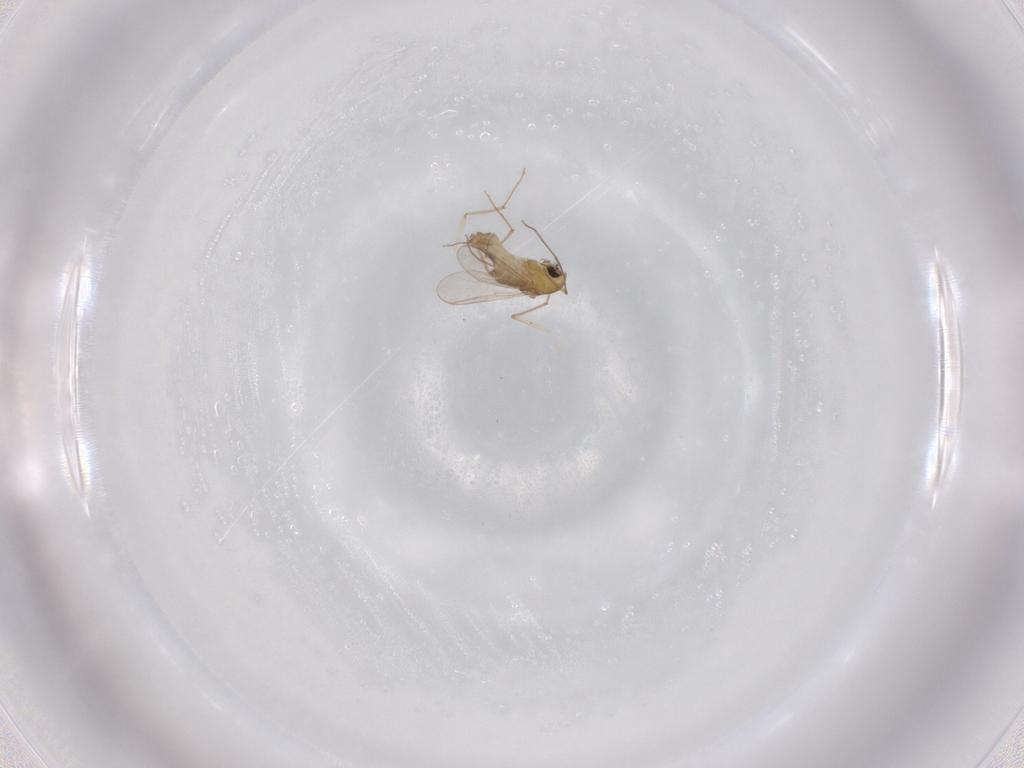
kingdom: Animalia
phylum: Arthropoda
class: Insecta
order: Diptera
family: Chironomidae
